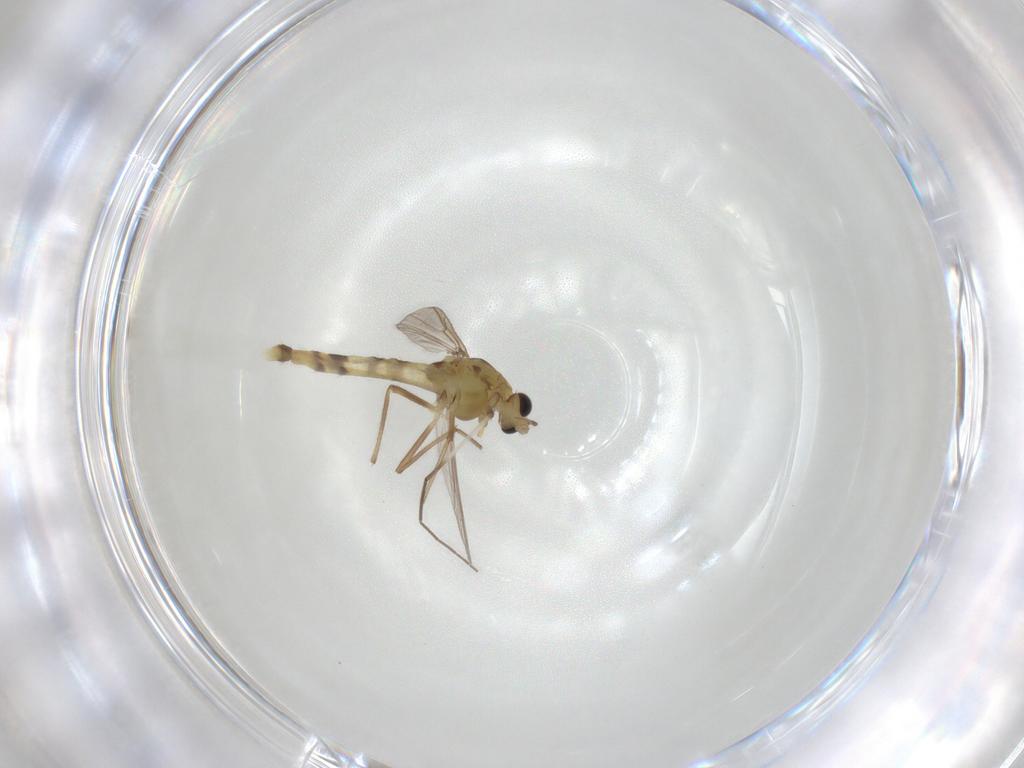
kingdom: Animalia
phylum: Arthropoda
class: Insecta
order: Diptera
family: Chironomidae
